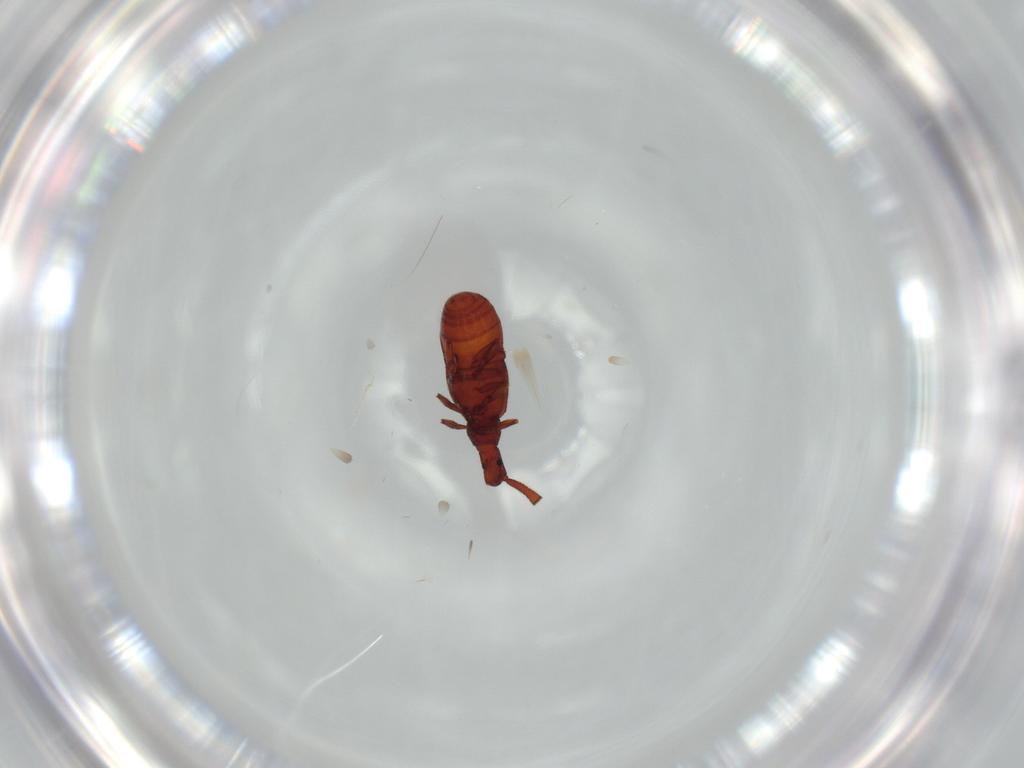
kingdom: Animalia
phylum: Arthropoda
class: Insecta
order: Coleoptera
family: Staphylinidae
